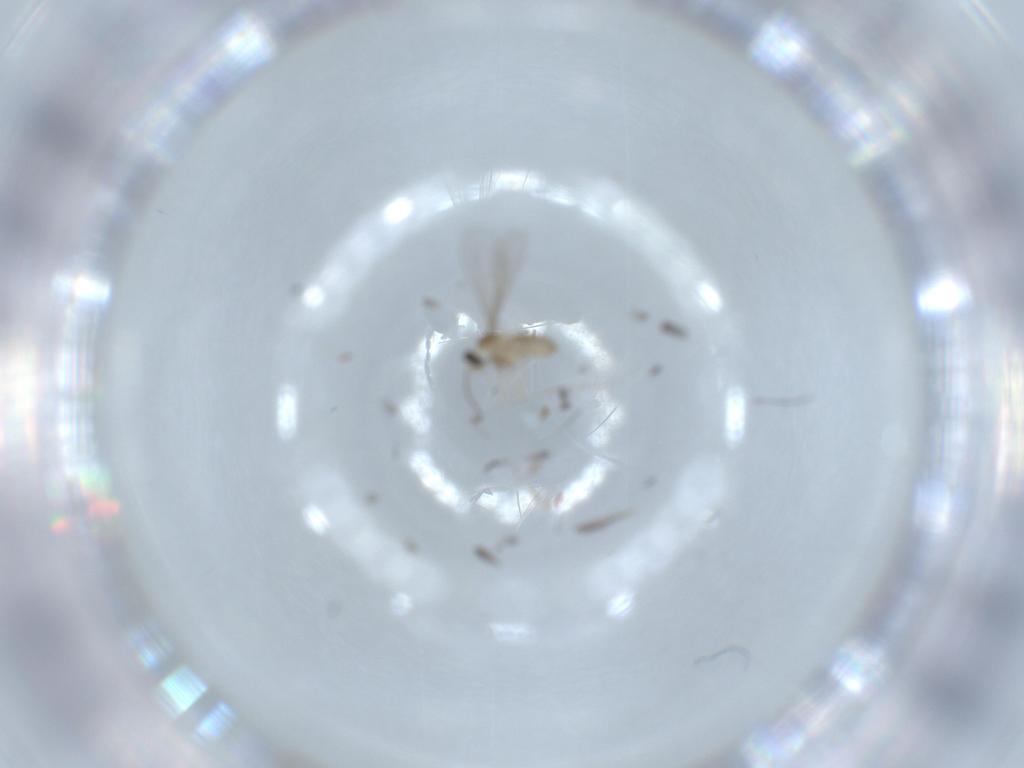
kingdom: Animalia
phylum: Arthropoda
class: Insecta
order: Diptera
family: Cecidomyiidae
